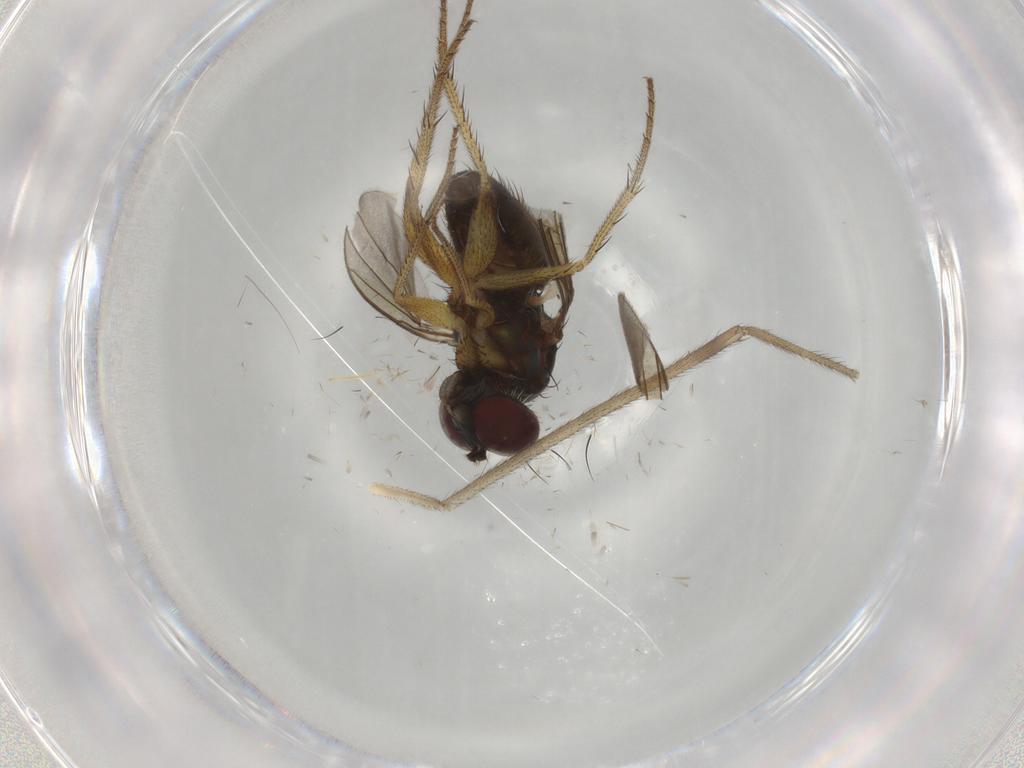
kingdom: Animalia
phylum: Arthropoda
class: Insecta
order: Diptera
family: Dolichopodidae
